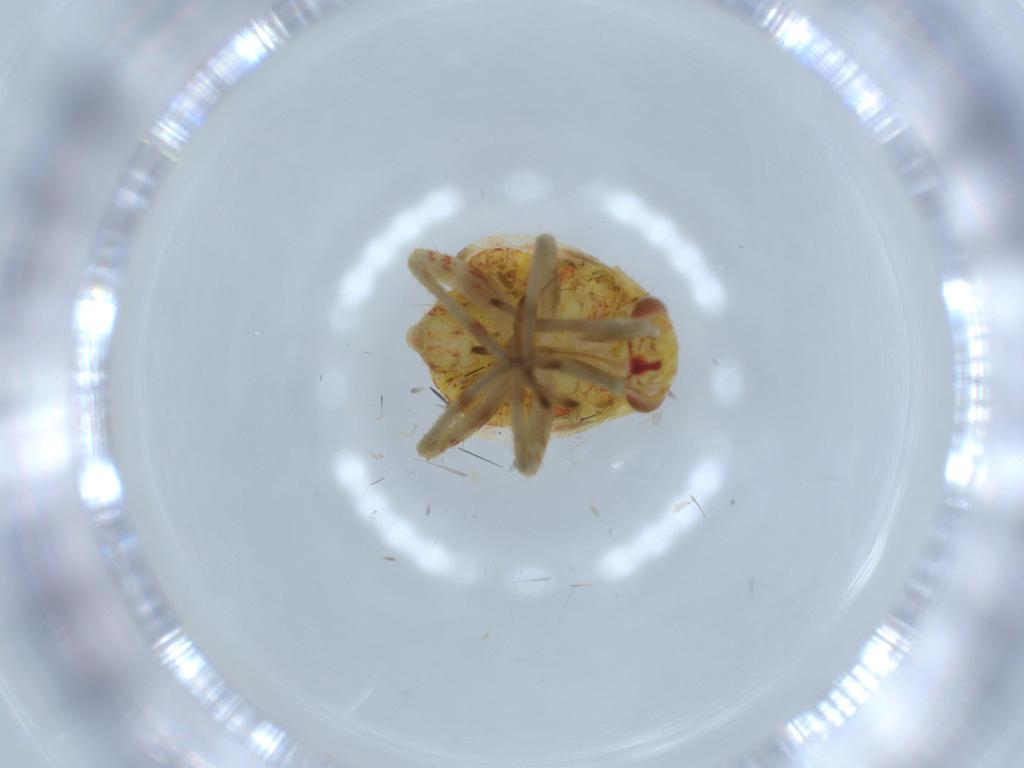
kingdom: Animalia
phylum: Arthropoda
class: Insecta
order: Hemiptera
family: Miridae
